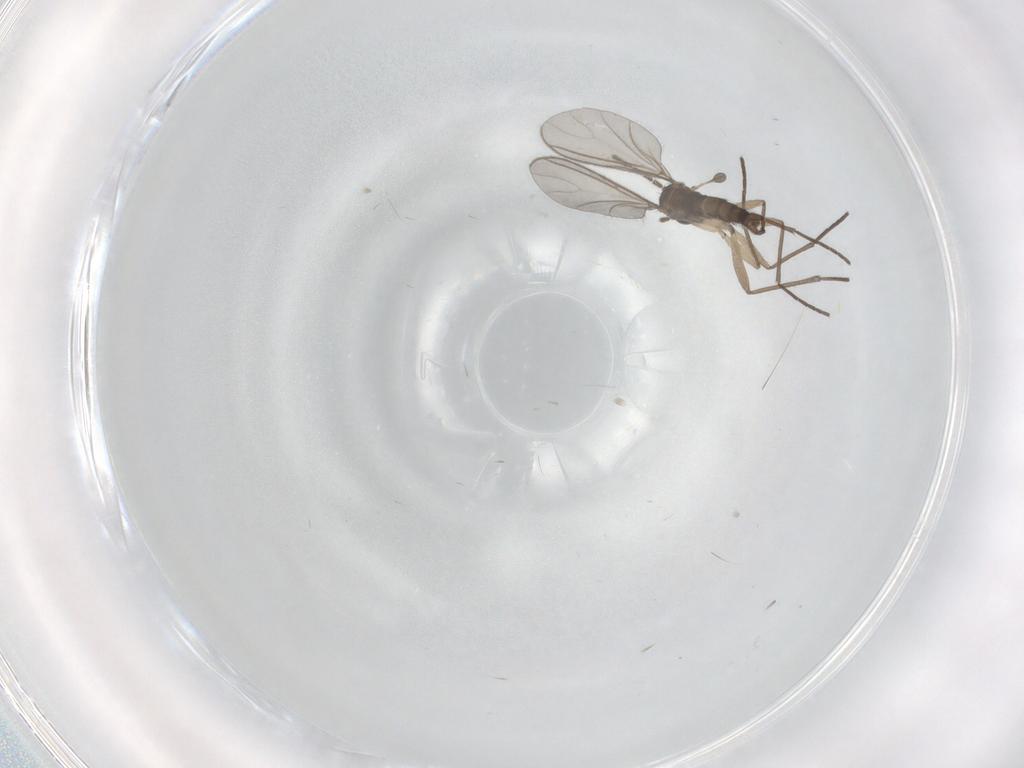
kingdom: Animalia
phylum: Arthropoda
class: Insecta
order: Diptera
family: Sciaridae
